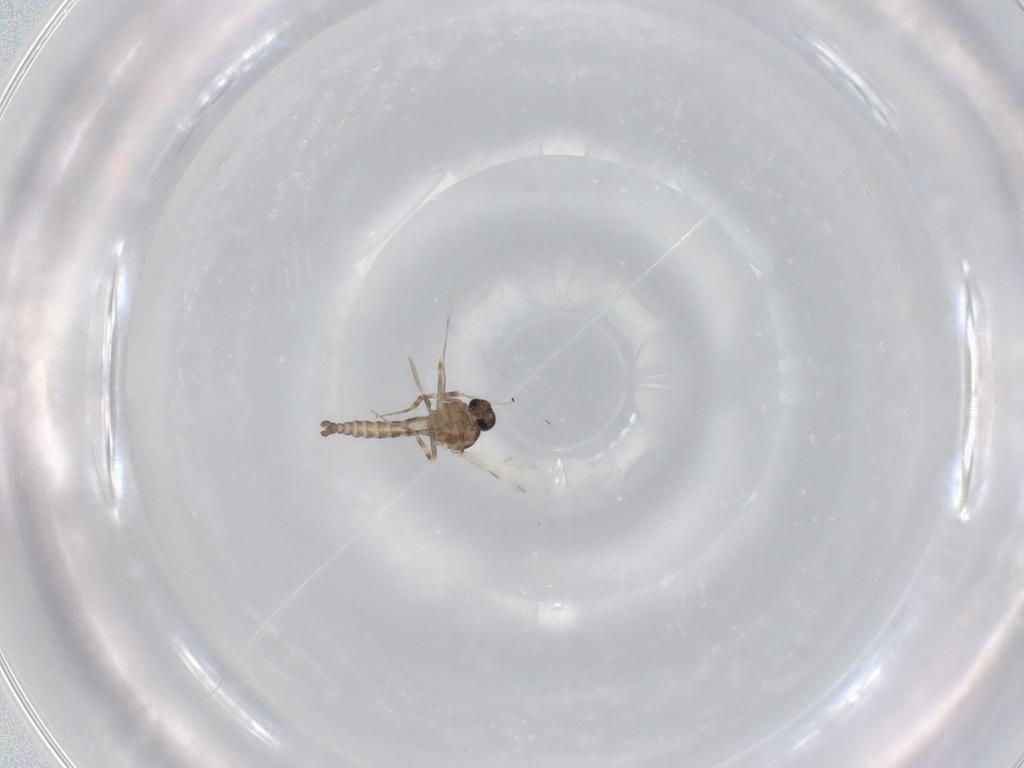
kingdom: Animalia
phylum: Arthropoda
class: Insecta
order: Diptera
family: Ceratopogonidae
